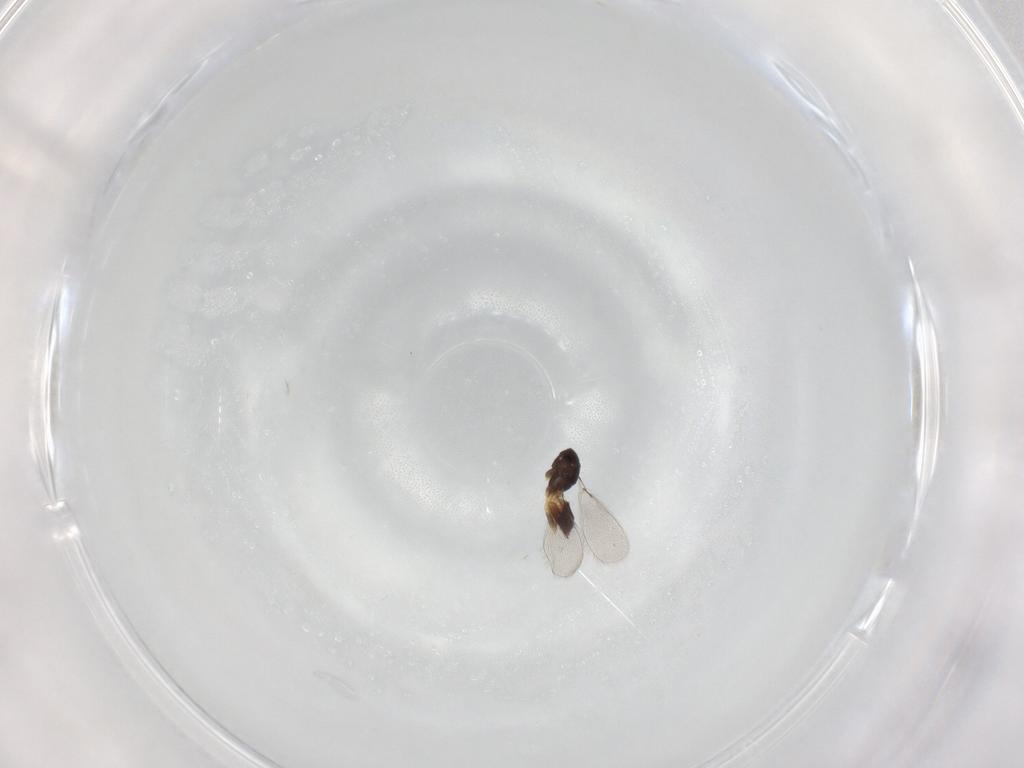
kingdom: Animalia
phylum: Arthropoda
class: Insecta
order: Hymenoptera
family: Mymaridae
